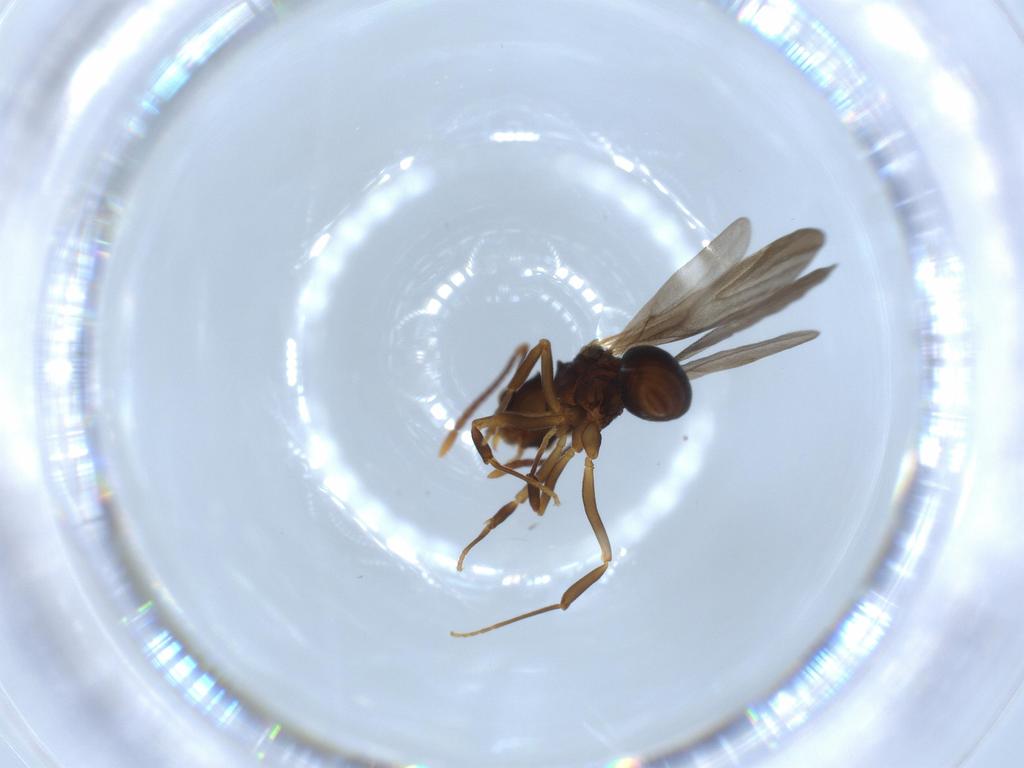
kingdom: Animalia
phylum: Arthropoda
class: Insecta
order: Hymenoptera
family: Formicidae
